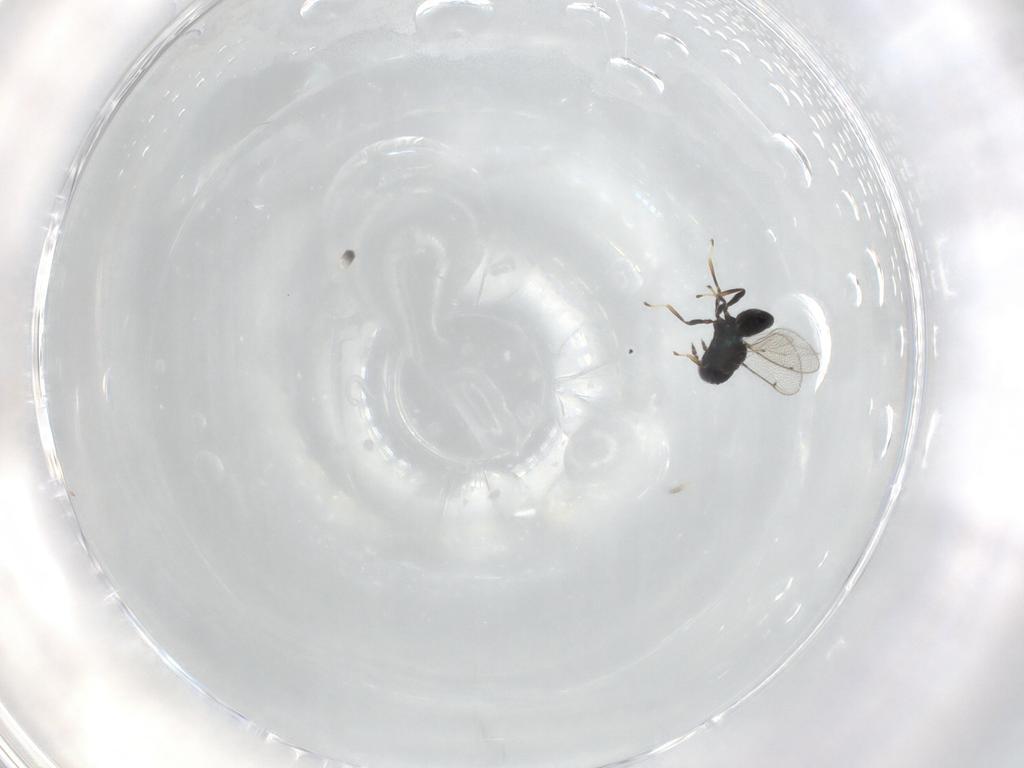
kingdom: Animalia
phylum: Arthropoda
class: Insecta
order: Hymenoptera
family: Eulophidae
